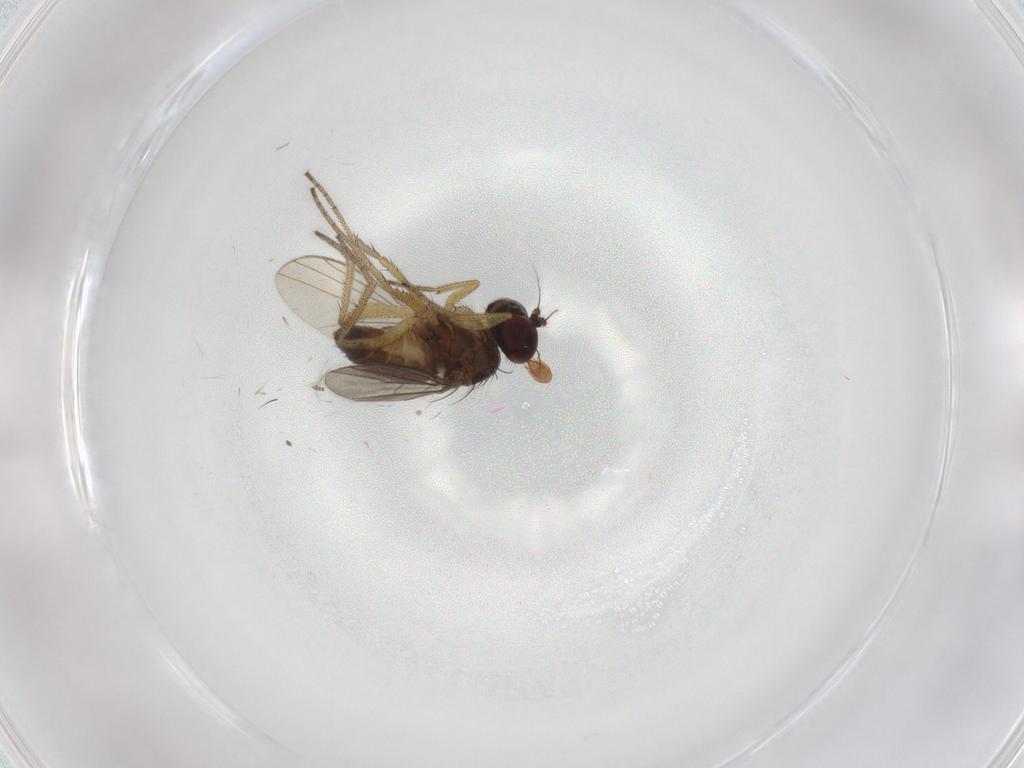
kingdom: Animalia
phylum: Arthropoda
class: Insecta
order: Diptera
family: Dolichopodidae
